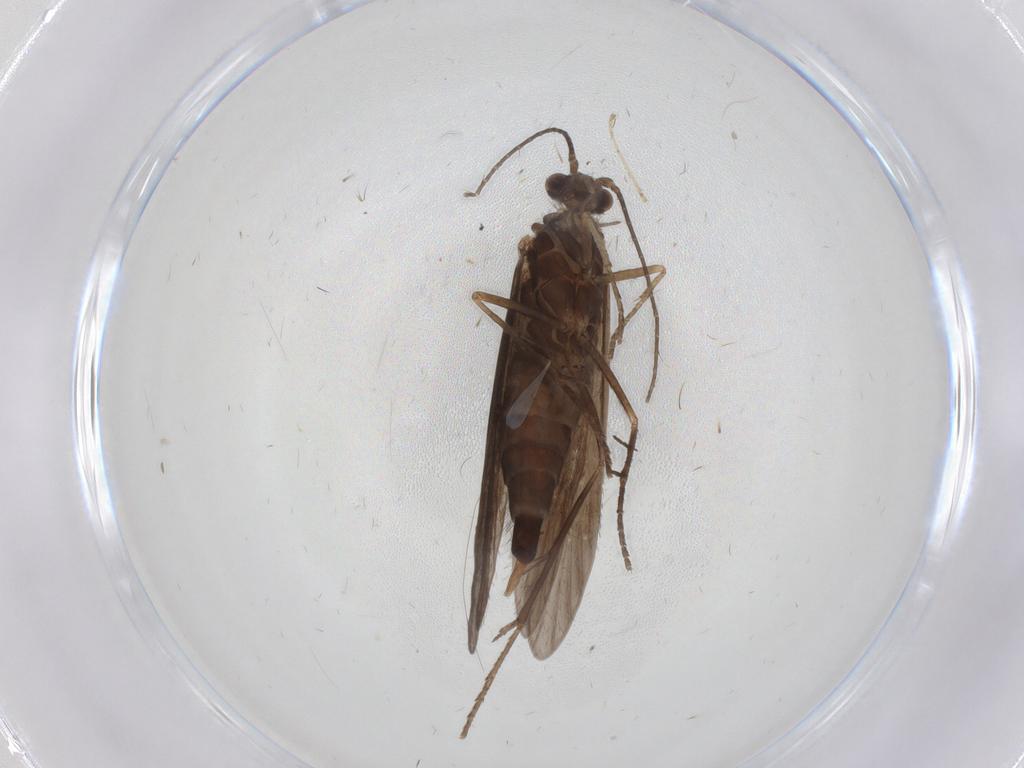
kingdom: Animalia
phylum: Arthropoda
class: Insecta
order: Trichoptera
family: Xiphocentronidae
